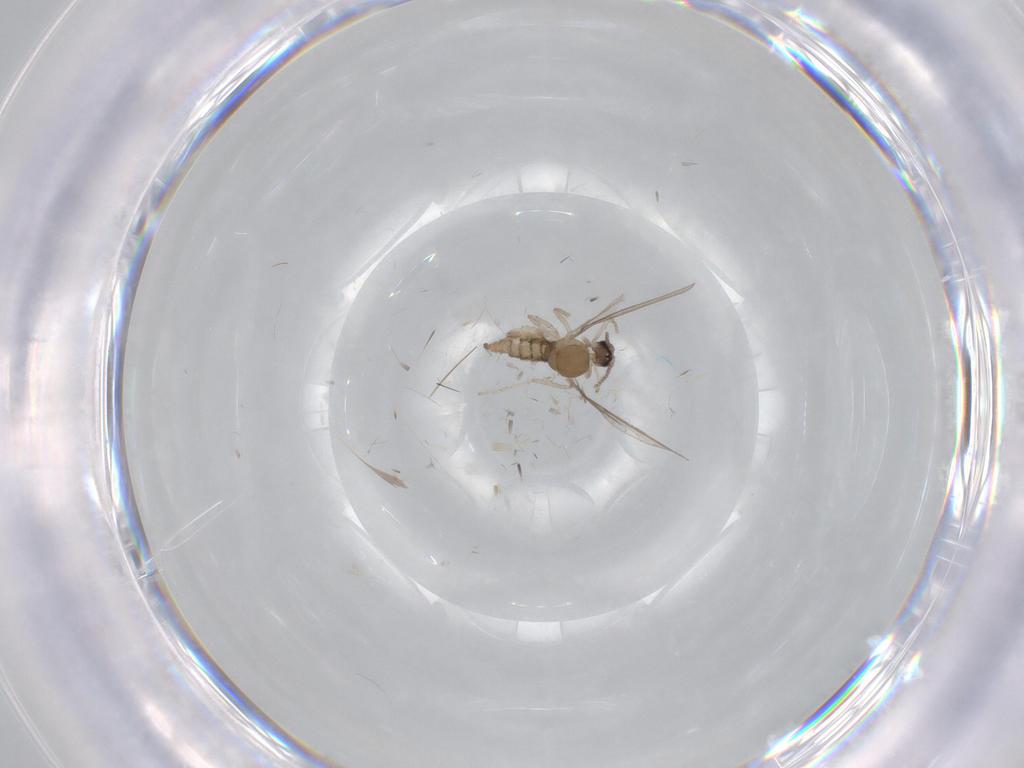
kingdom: Animalia
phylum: Arthropoda
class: Insecta
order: Diptera
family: Cecidomyiidae
